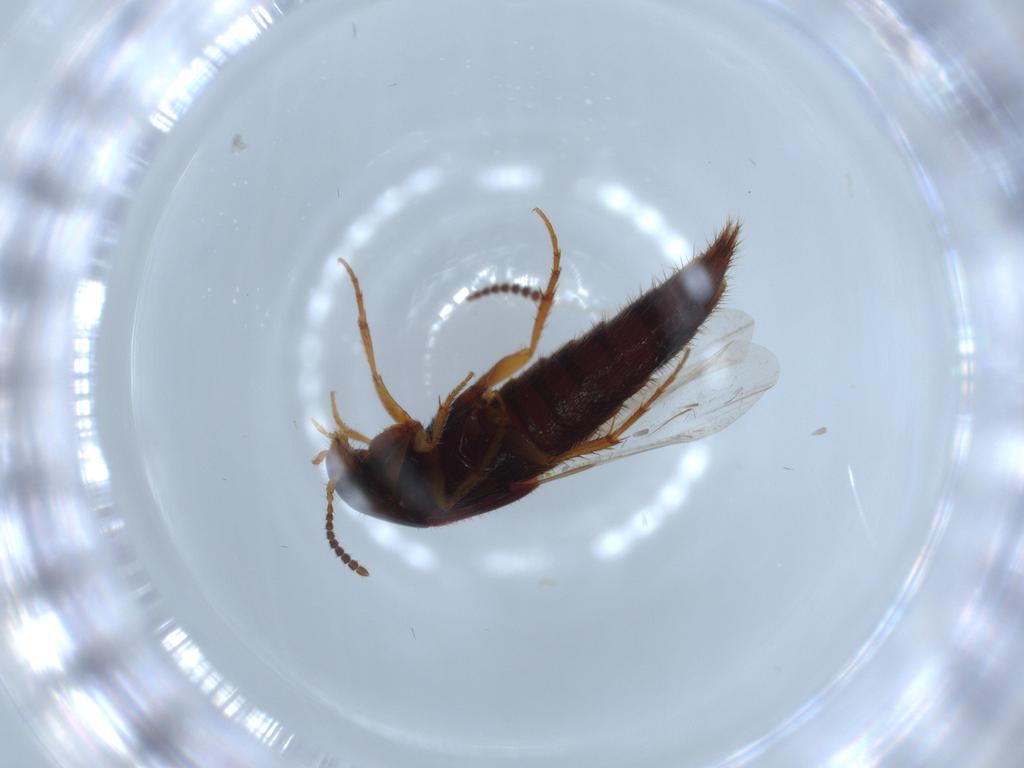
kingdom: Animalia
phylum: Arthropoda
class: Insecta
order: Coleoptera
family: Staphylinidae
